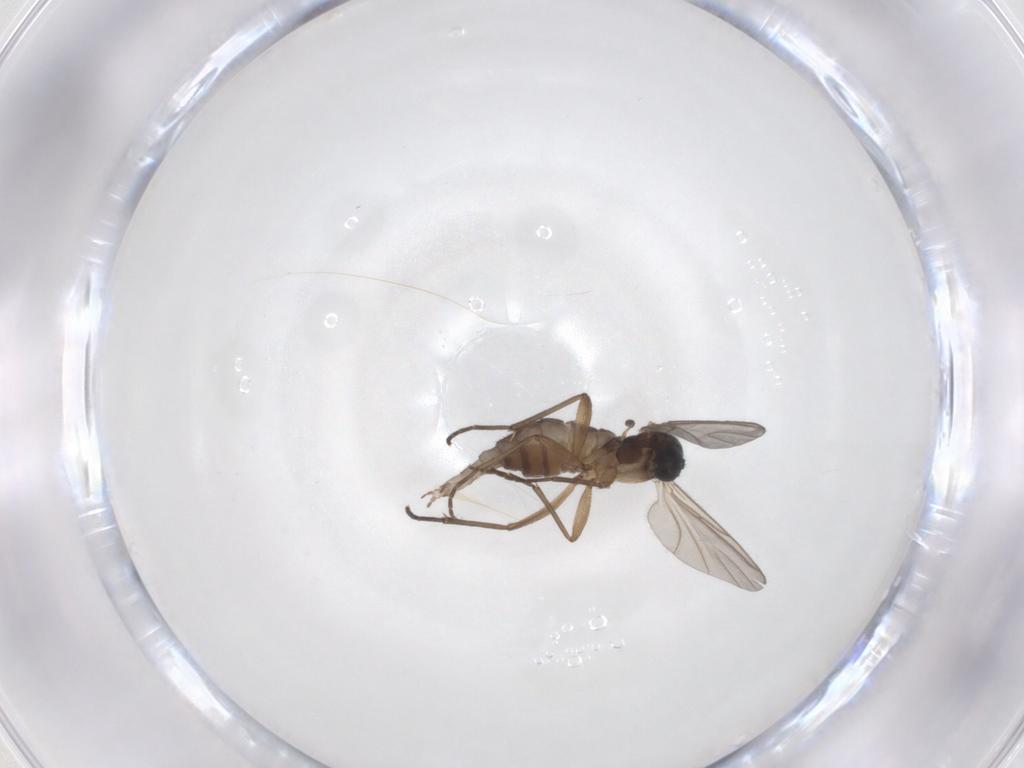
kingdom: Animalia
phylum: Arthropoda
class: Insecta
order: Diptera
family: Sciaridae
